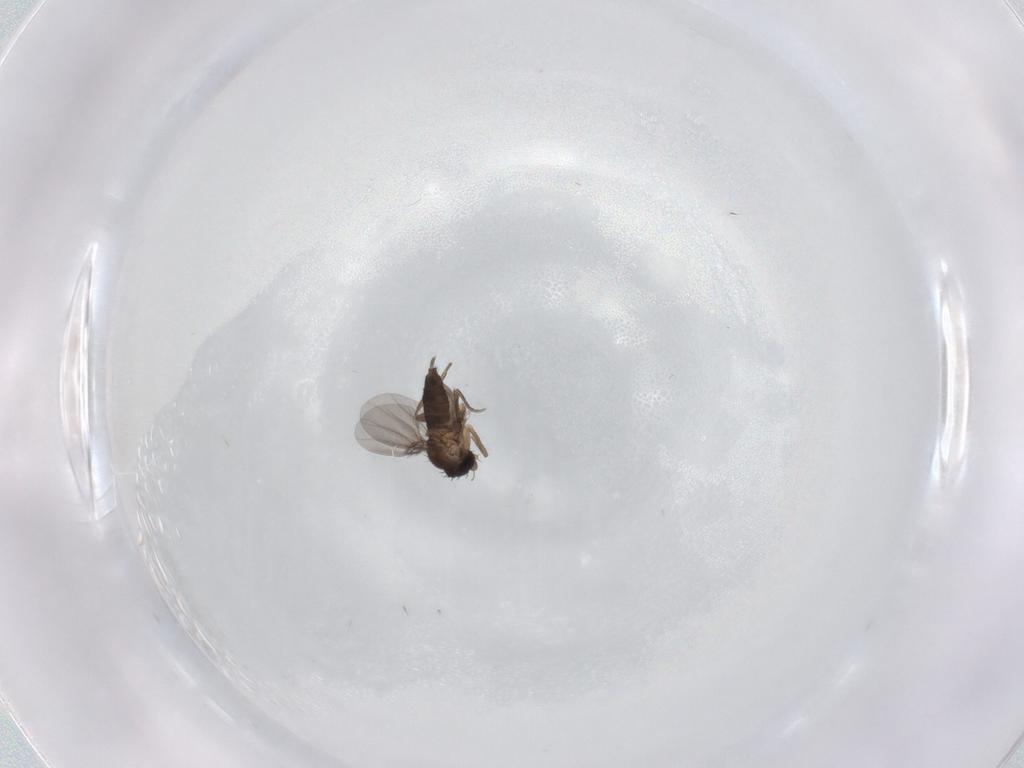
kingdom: Animalia
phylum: Arthropoda
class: Insecta
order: Diptera
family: Phoridae
